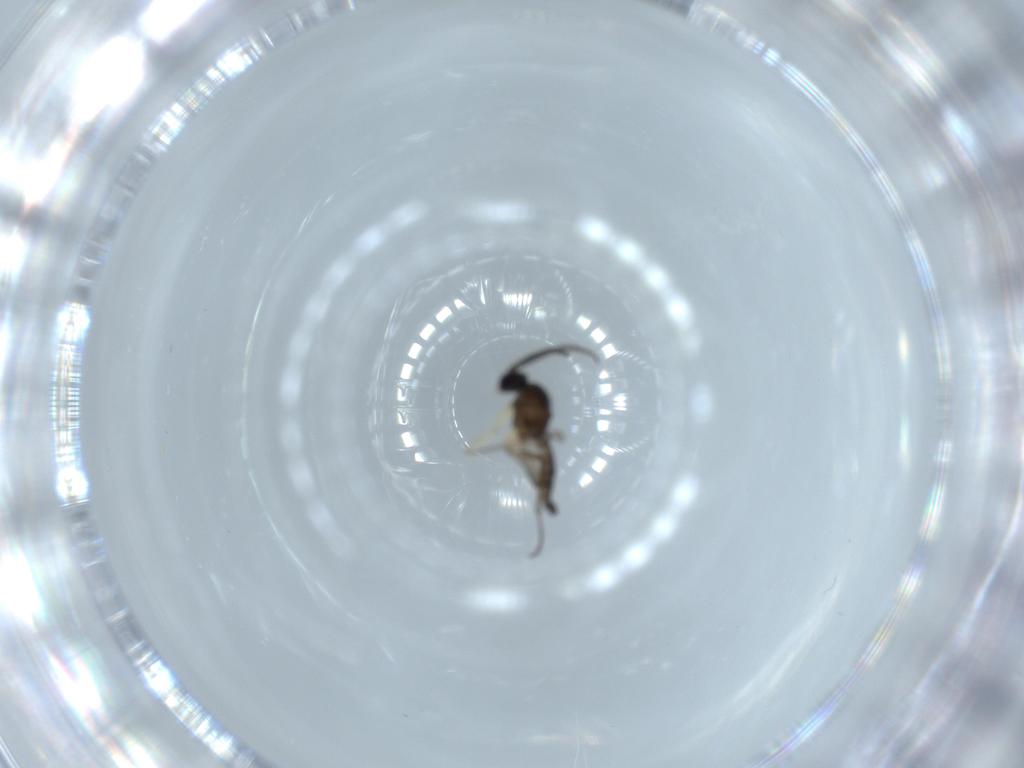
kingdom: Animalia
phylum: Arthropoda
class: Insecta
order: Diptera
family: Sciaridae
